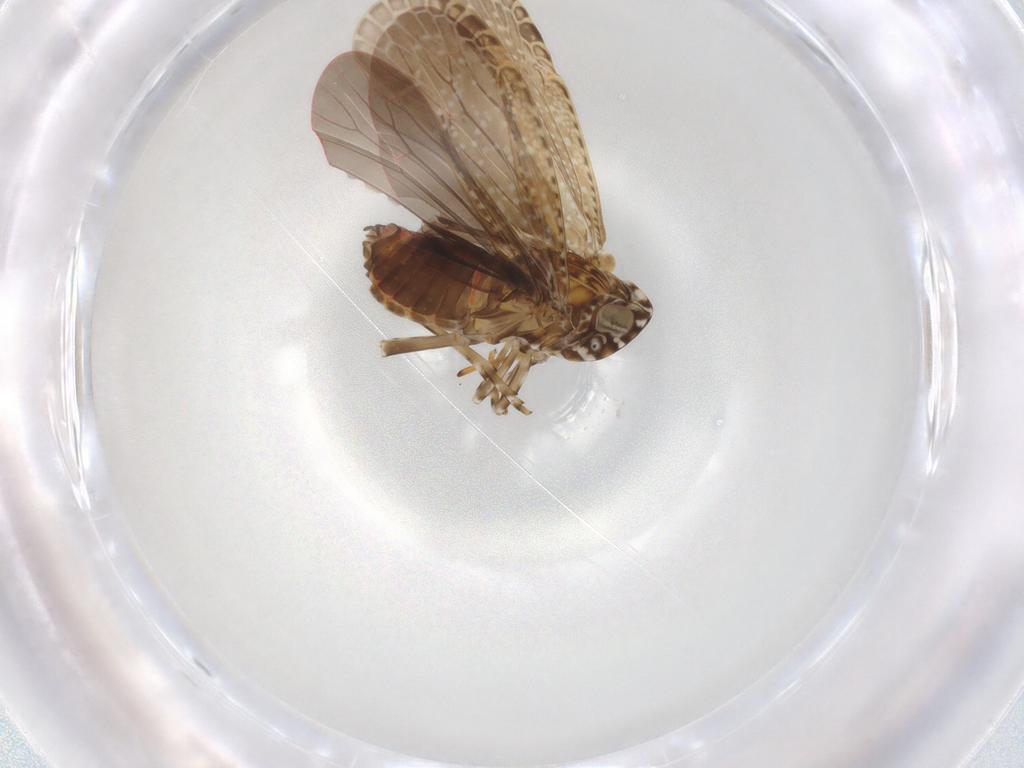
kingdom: Animalia
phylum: Arthropoda
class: Insecta
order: Hemiptera
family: Achilidae
